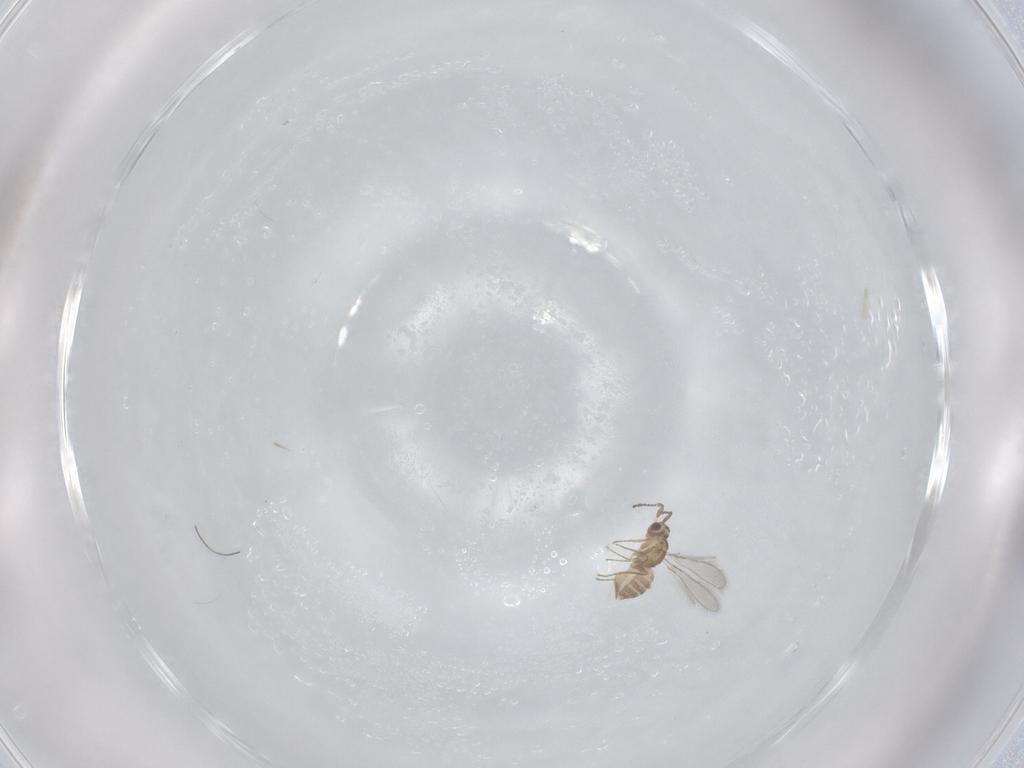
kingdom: Animalia
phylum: Arthropoda
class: Insecta
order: Hymenoptera
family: Mymaridae
